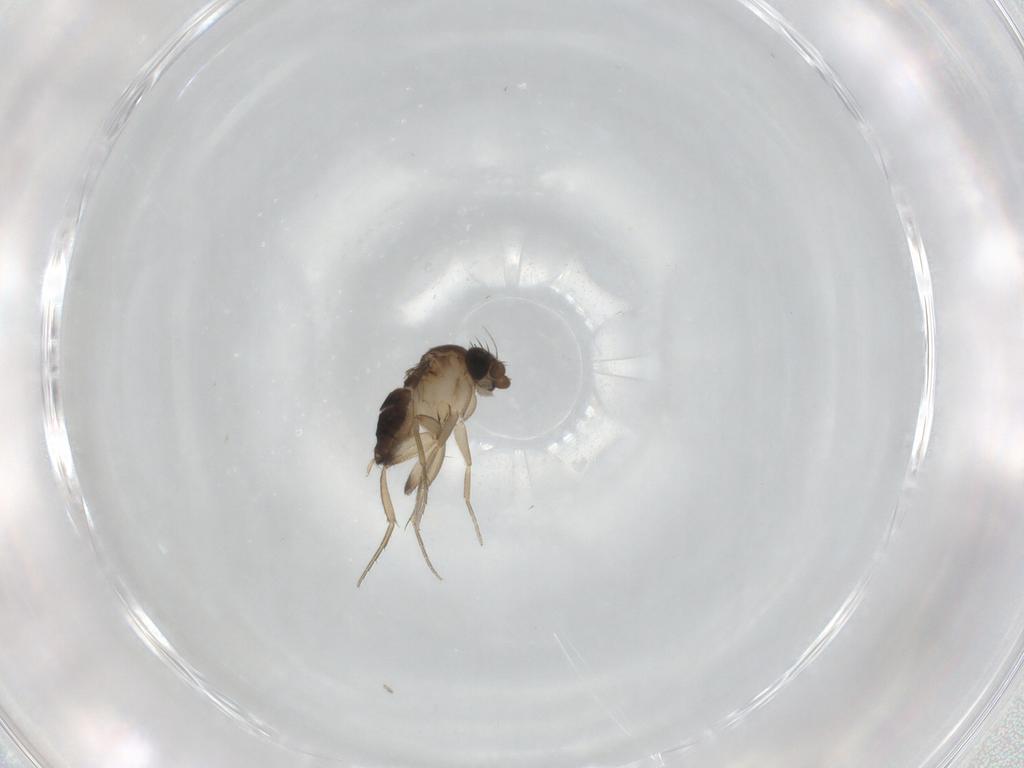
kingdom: Animalia
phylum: Arthropoda
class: Insecta
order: Diptera
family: Phoridae
